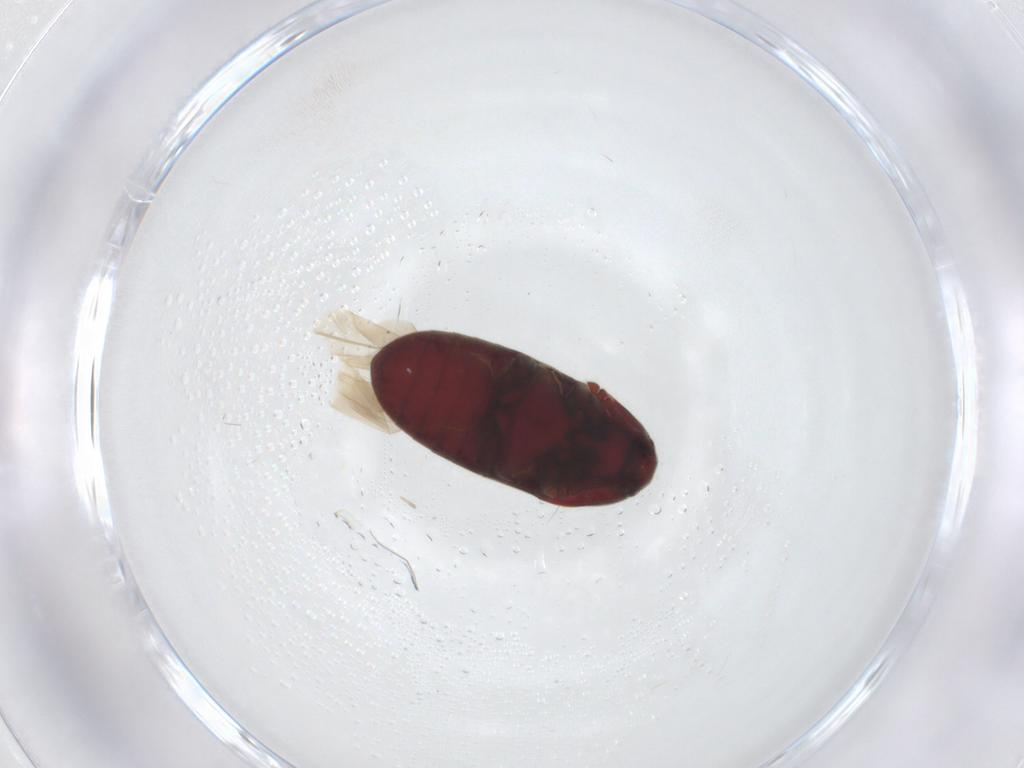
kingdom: Animalia
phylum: Arthropoda
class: Insecta
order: Coleoptera
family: Throscidae
